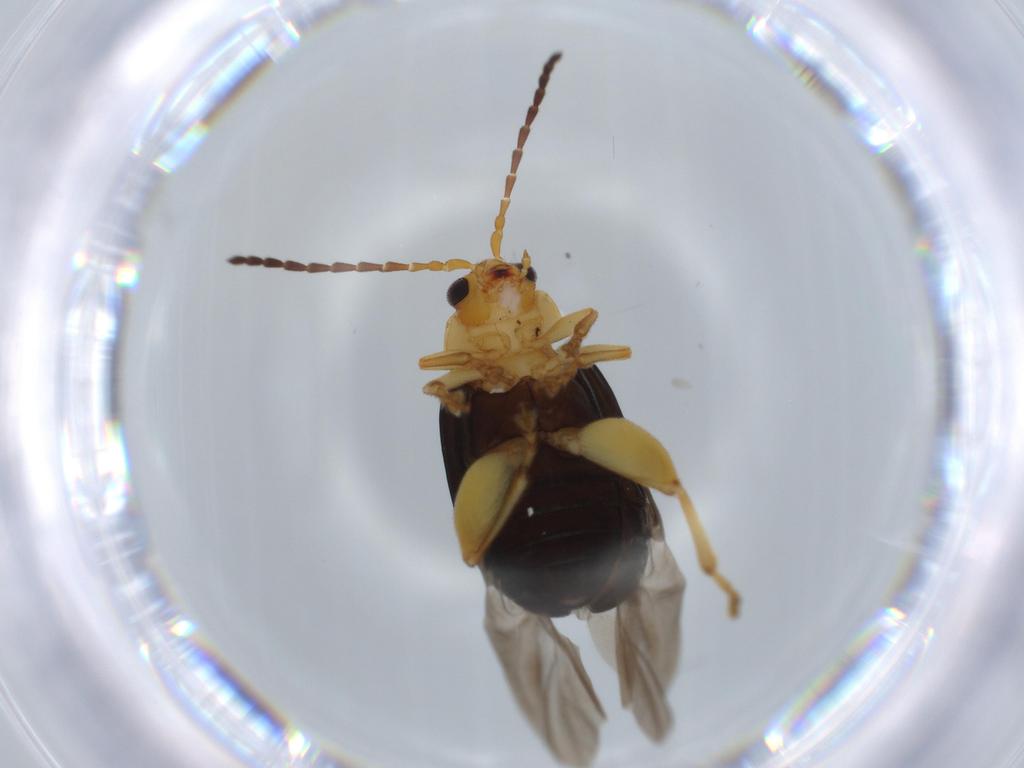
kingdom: Animalia
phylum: Arthropoda
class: Insecta
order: Coleoptera
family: Chrysomelidae
